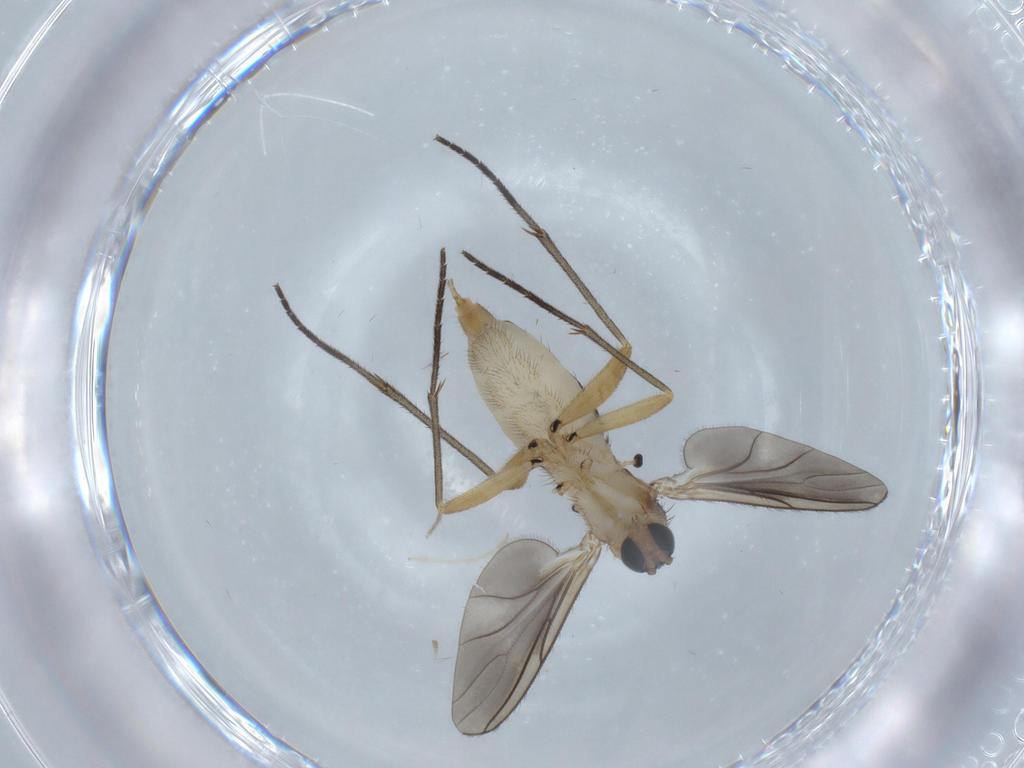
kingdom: Animalia
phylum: Arthropoda
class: Insecta
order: Diptera
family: Sciaridae
